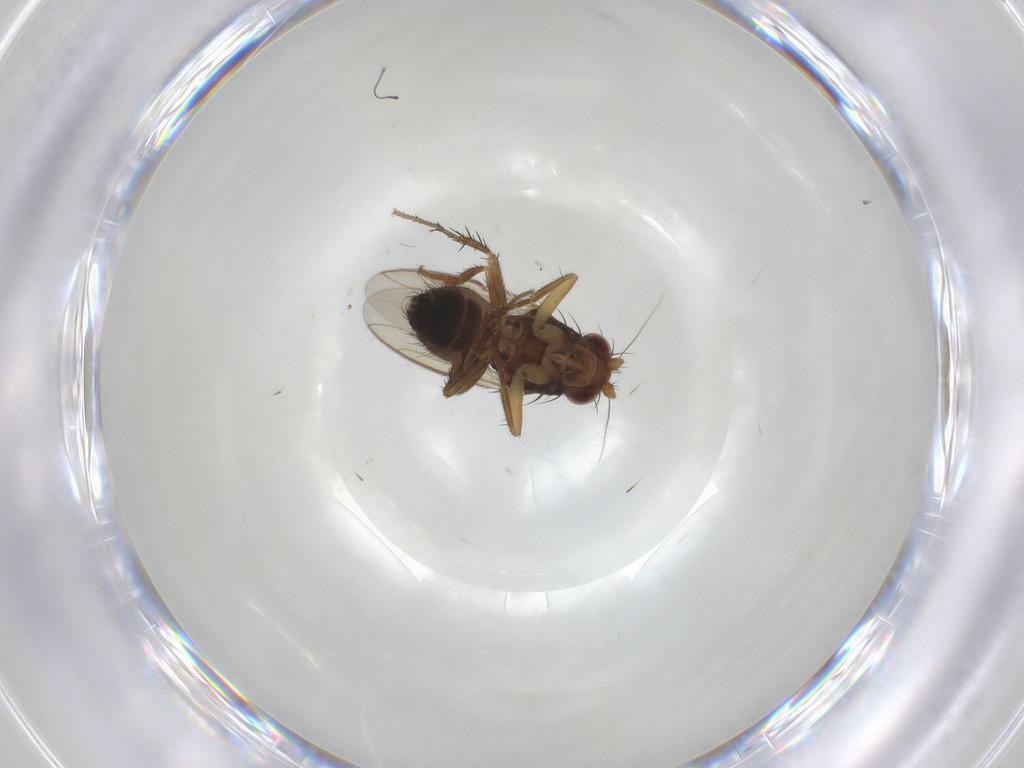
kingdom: Animalia
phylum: Arthropoda
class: Insecta
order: Diptera
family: Sphaeroceridae
